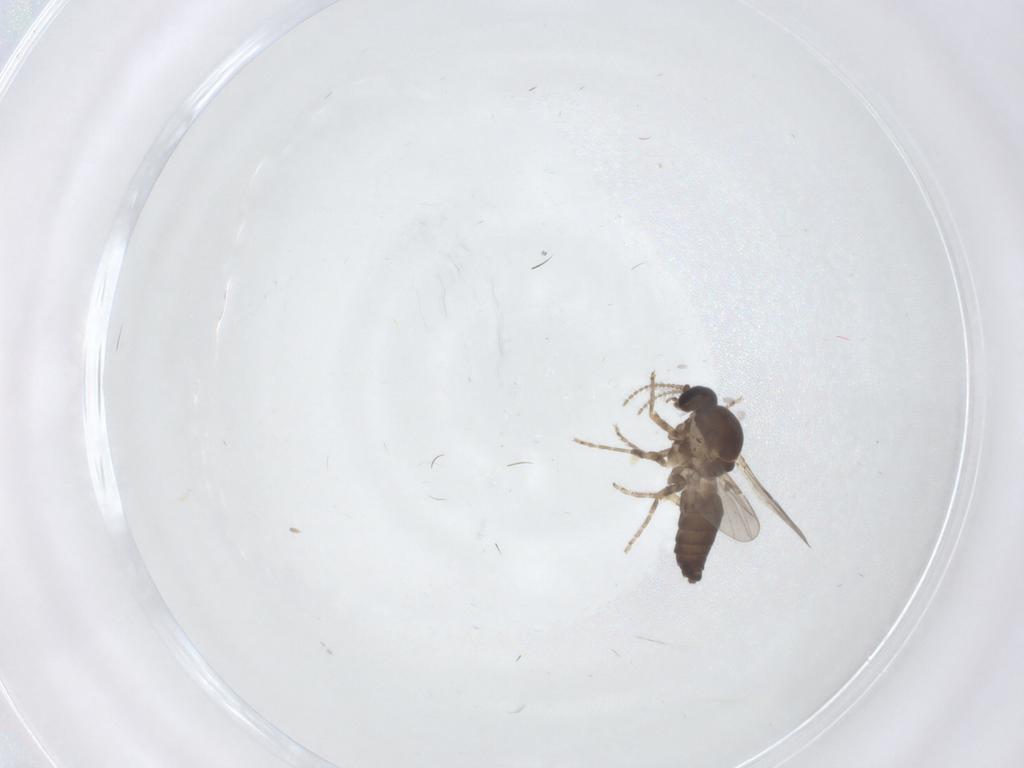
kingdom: Animalia
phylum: Arthropoda
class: Insecta
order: Diptera
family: Ceratopogonidae
